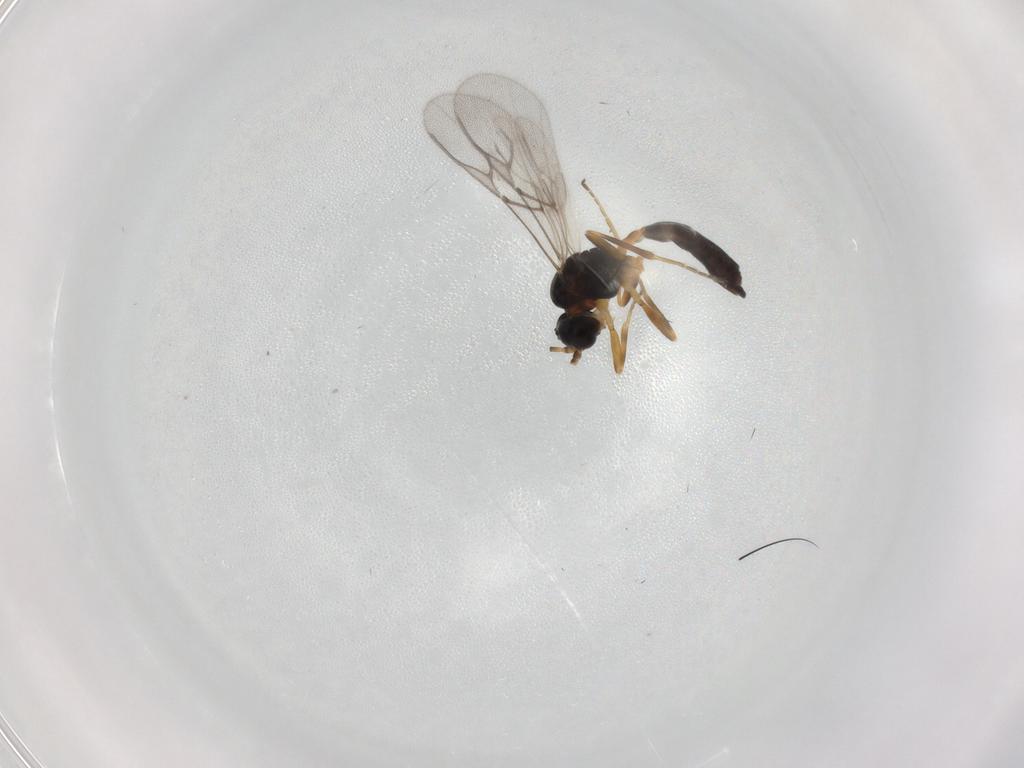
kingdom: Animalia
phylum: Arthropoda
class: Insecta
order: Hymenoptera
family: Braconidae
